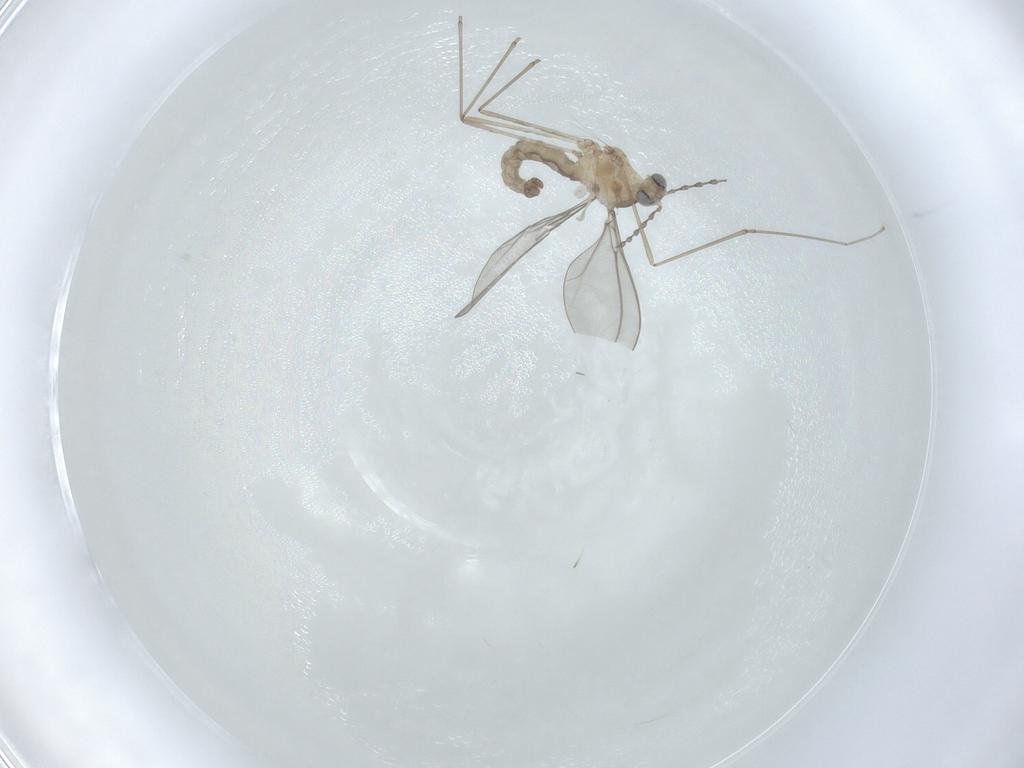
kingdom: Animalia
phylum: Arthropoda
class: Insecta
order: Diptera
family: Cecidomyiidae
